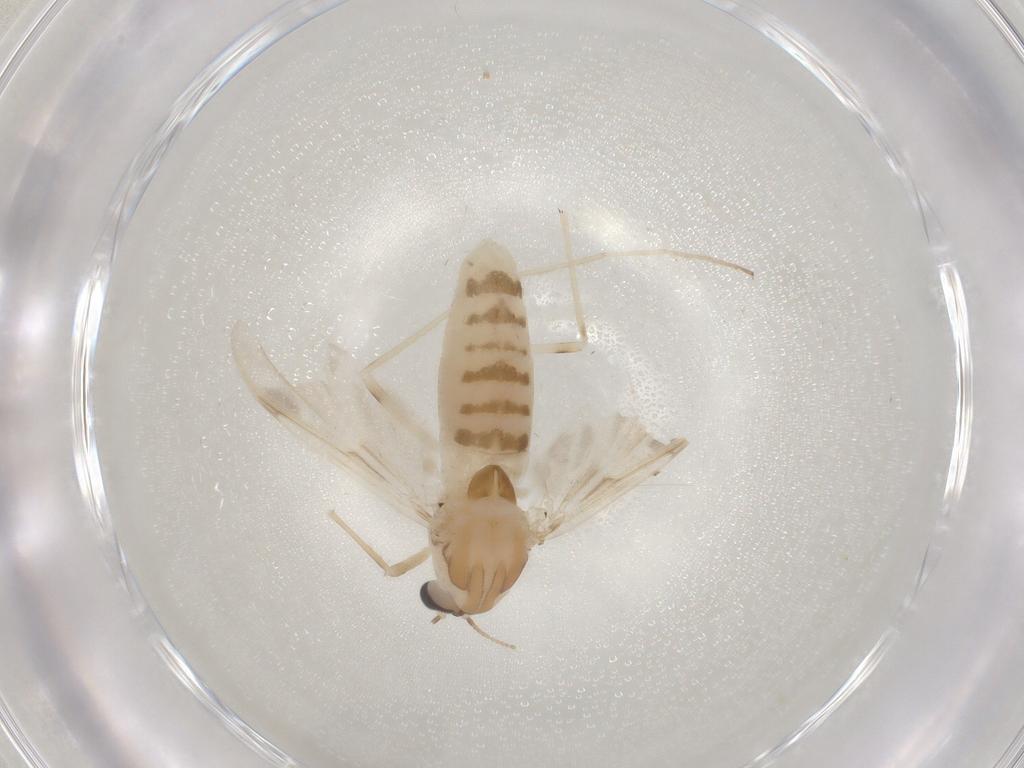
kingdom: Animalia
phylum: Arthropoda
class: Insecta
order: Diptera
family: Chironomidae
